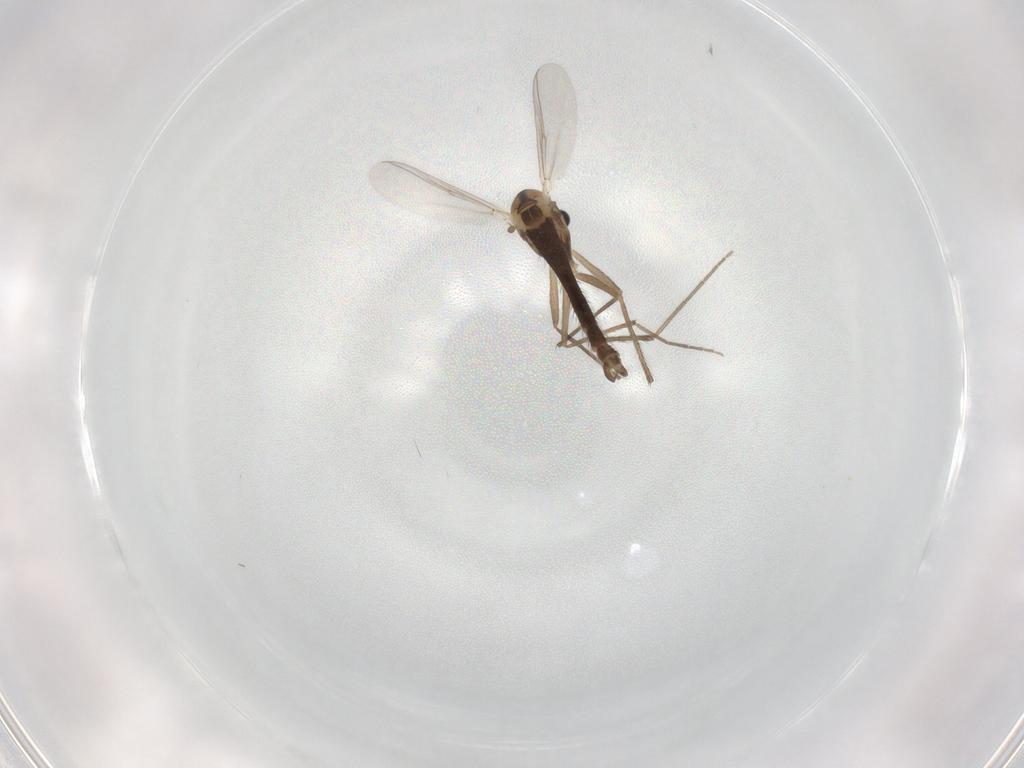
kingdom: Animalia
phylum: Arthropoda
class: Insecta
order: Diptera
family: Chironomidae
